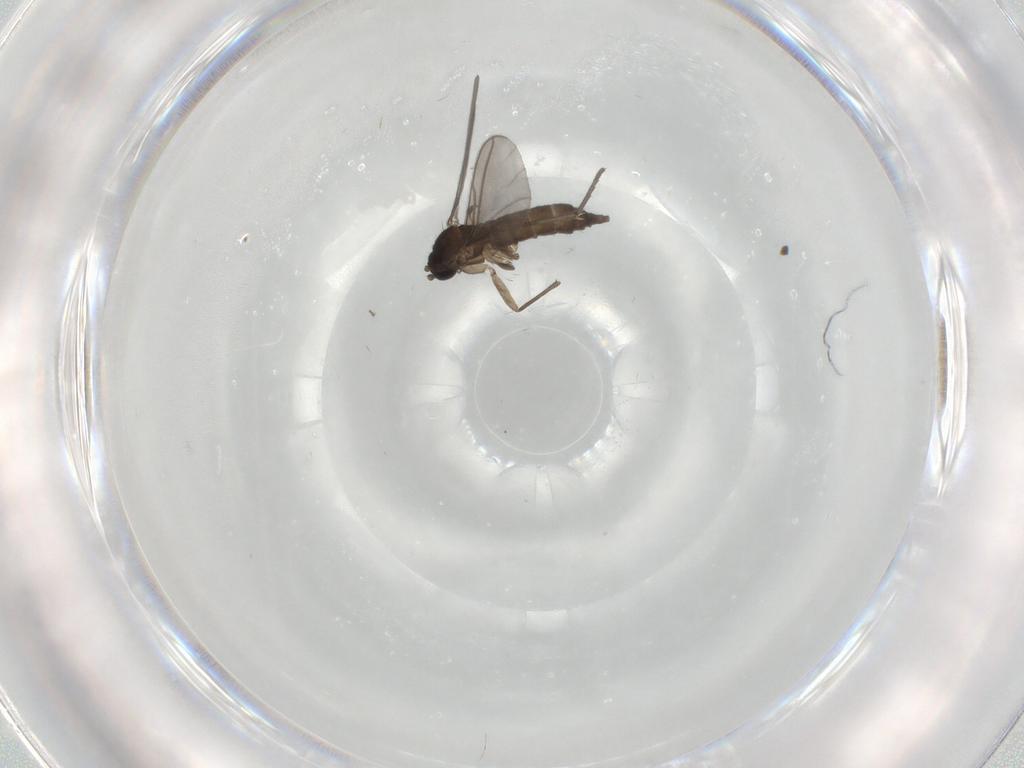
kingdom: Animalia
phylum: Arthropoda
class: Insecta
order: Diptera
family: Sciaridae
